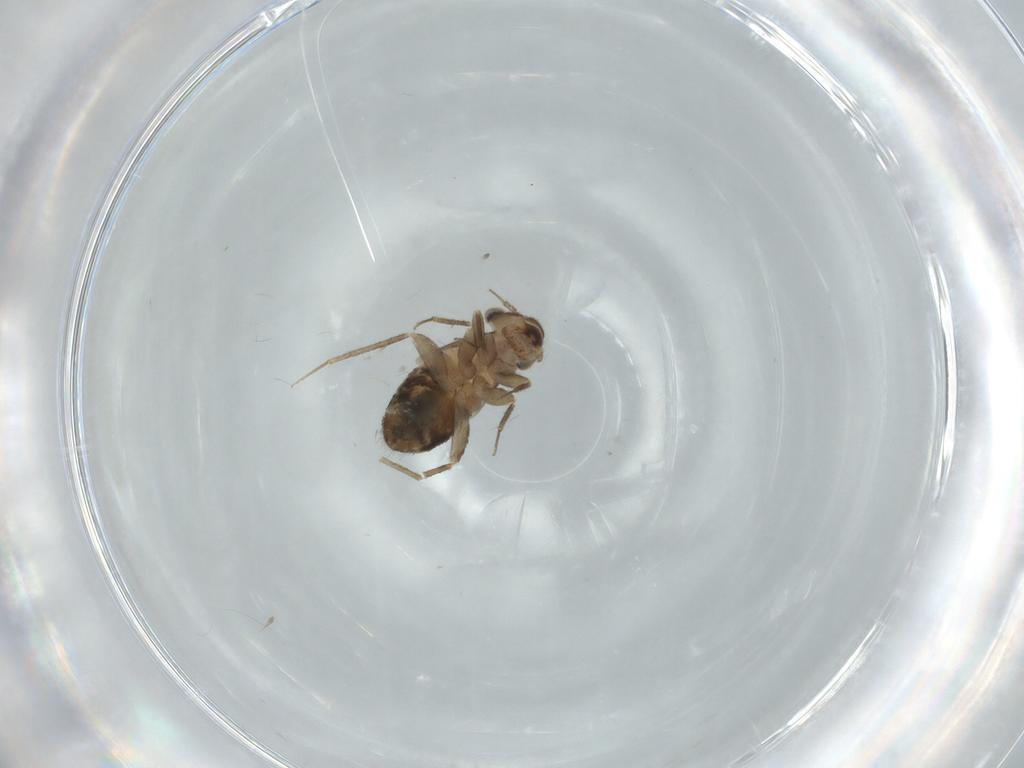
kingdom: Animalia
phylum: Arthropoda
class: Insecta
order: Psocodea
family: Lepidopsocidae
